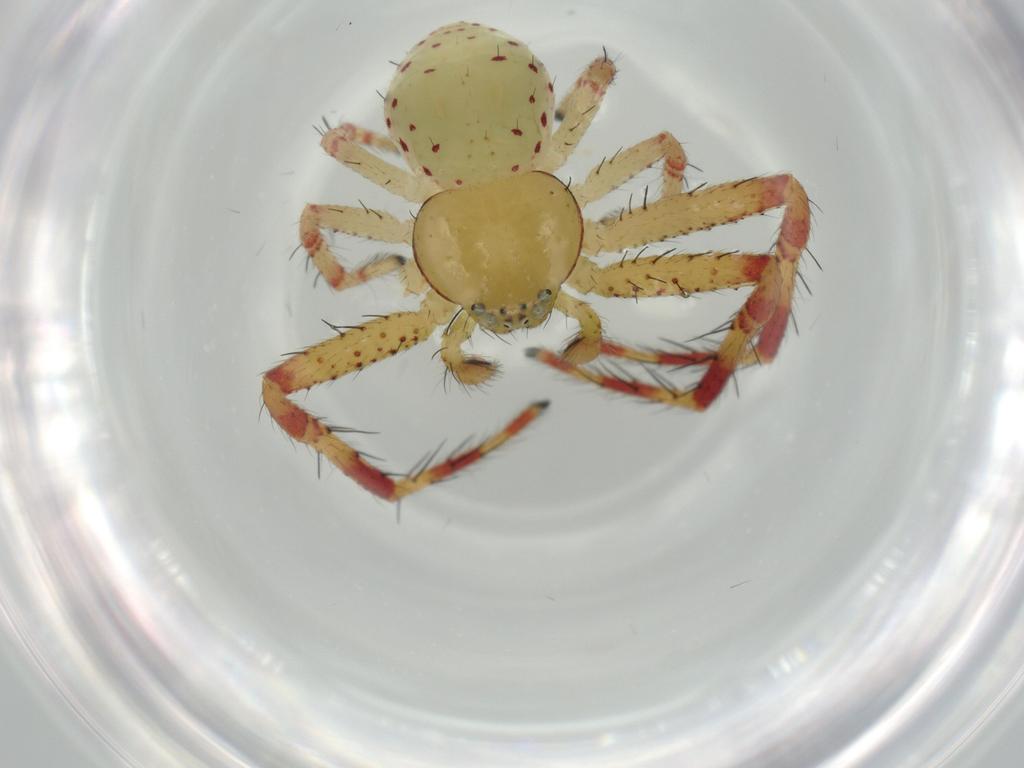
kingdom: Animalia
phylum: Arthropoda
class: Arachnida
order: Araneae
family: Thomisidae
